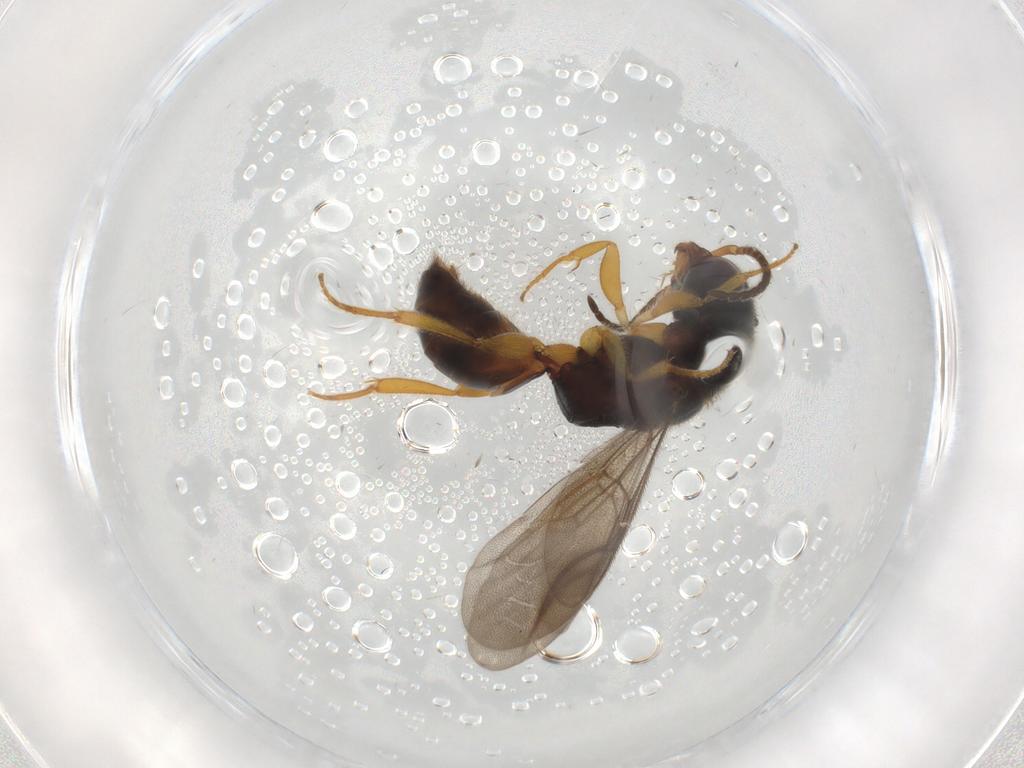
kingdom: Animalia
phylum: Arthropoda
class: Insecta
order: Hymenoptera
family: Bethylidae
